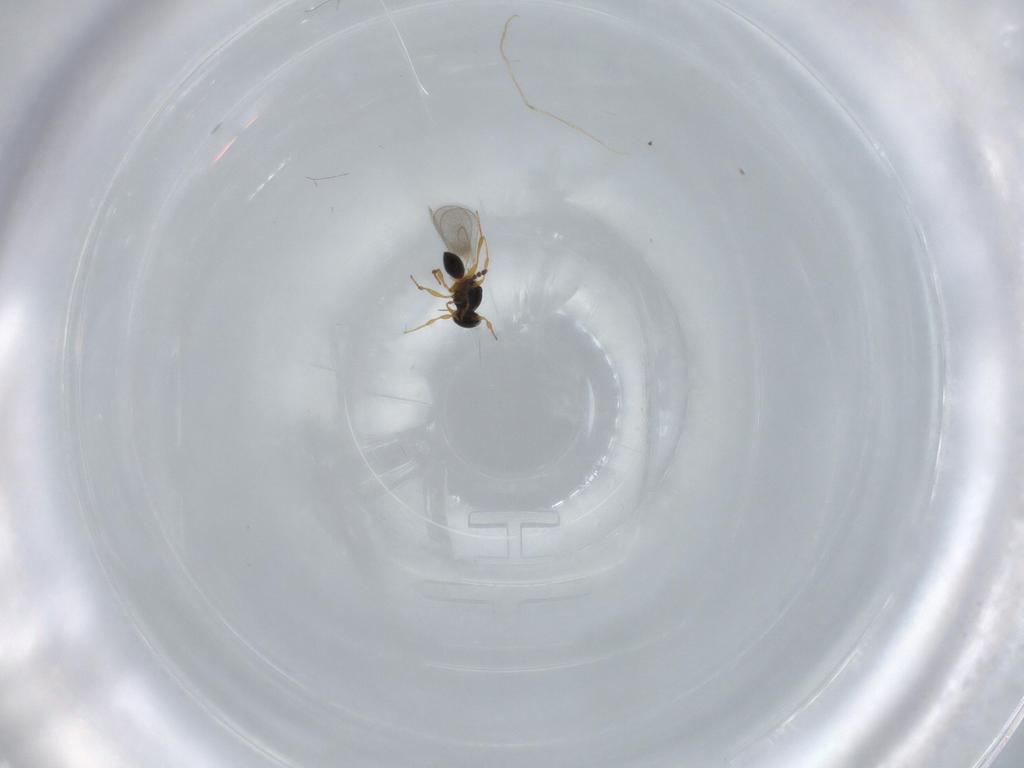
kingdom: Animalia
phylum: Arthropoda
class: Insecta
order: Hymenoptera
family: Platygastridae
